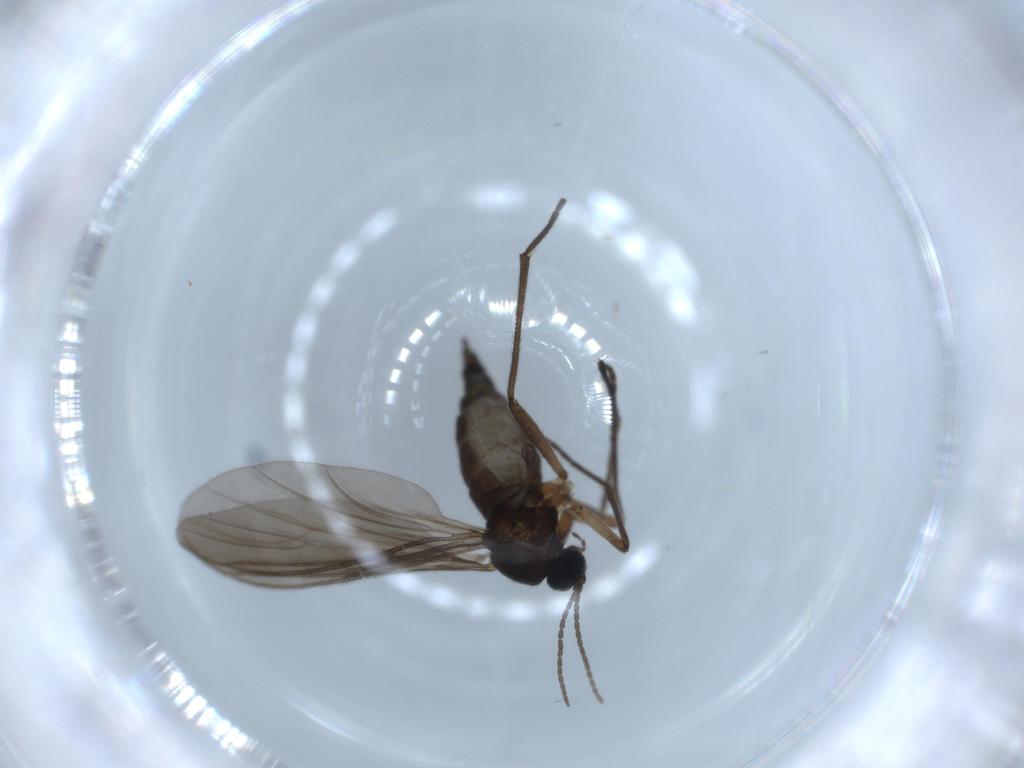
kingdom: Animalia
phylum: Arthropoda
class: Insecta
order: Diptera
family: Sciaridae
